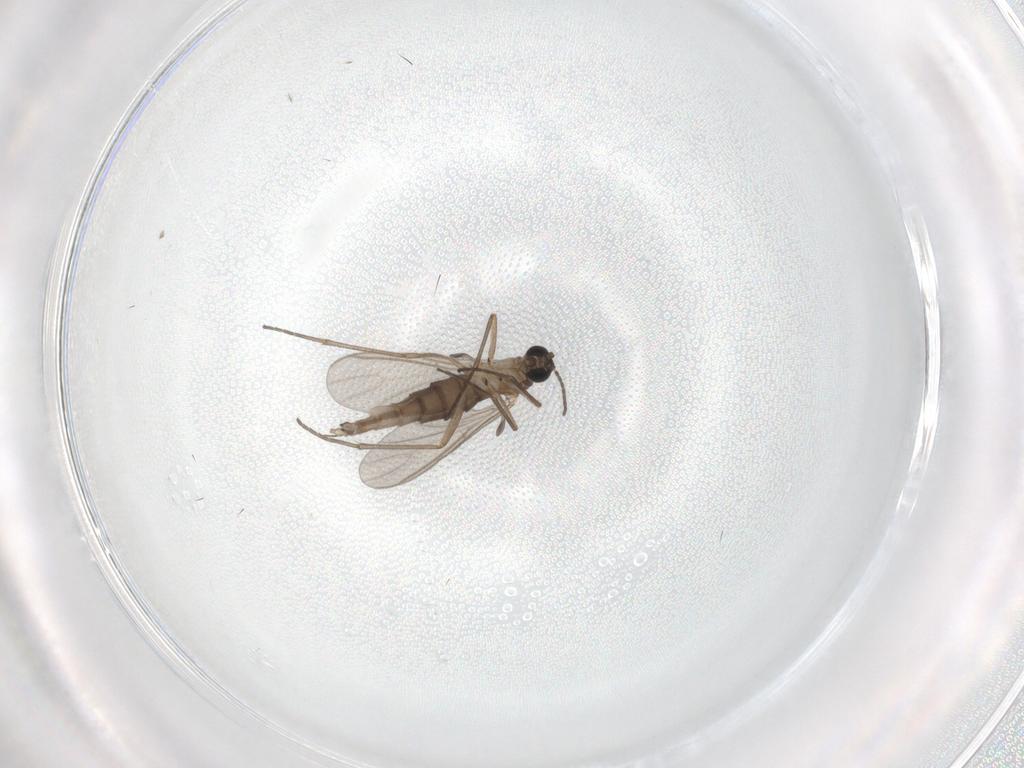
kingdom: Animalia
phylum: Arthropoda
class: Insecta
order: Diptera
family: Sciaridae
